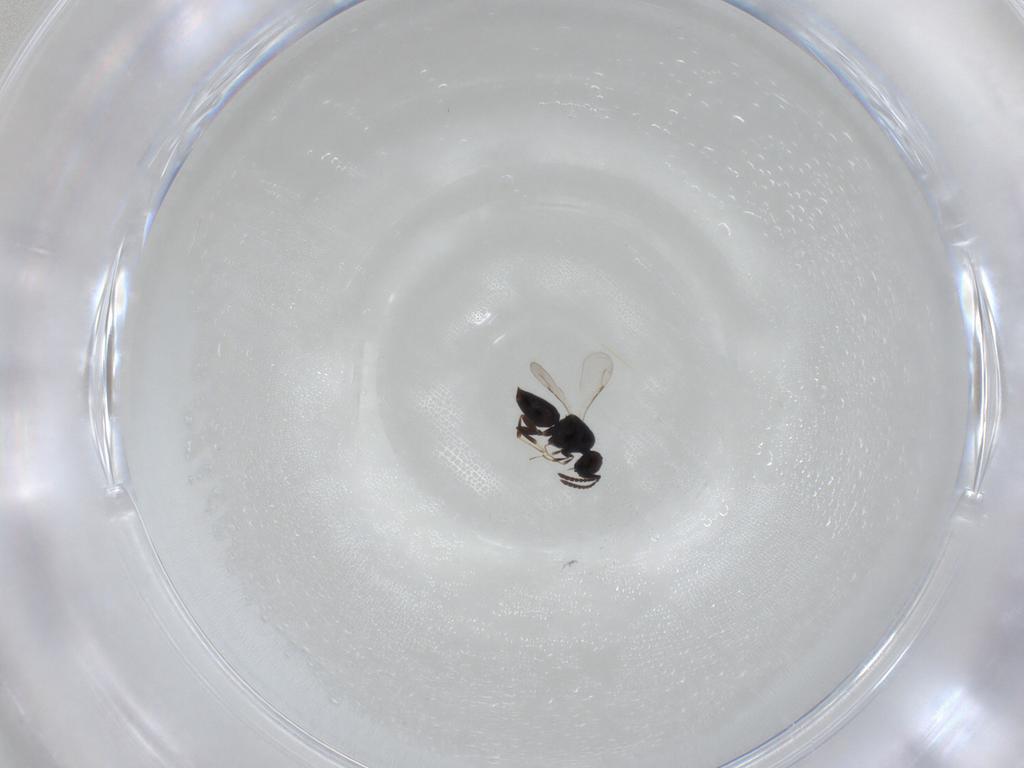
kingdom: Animalia
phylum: Arthropoda
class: Insecta
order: Hymenoptera
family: Ceraphronidae
